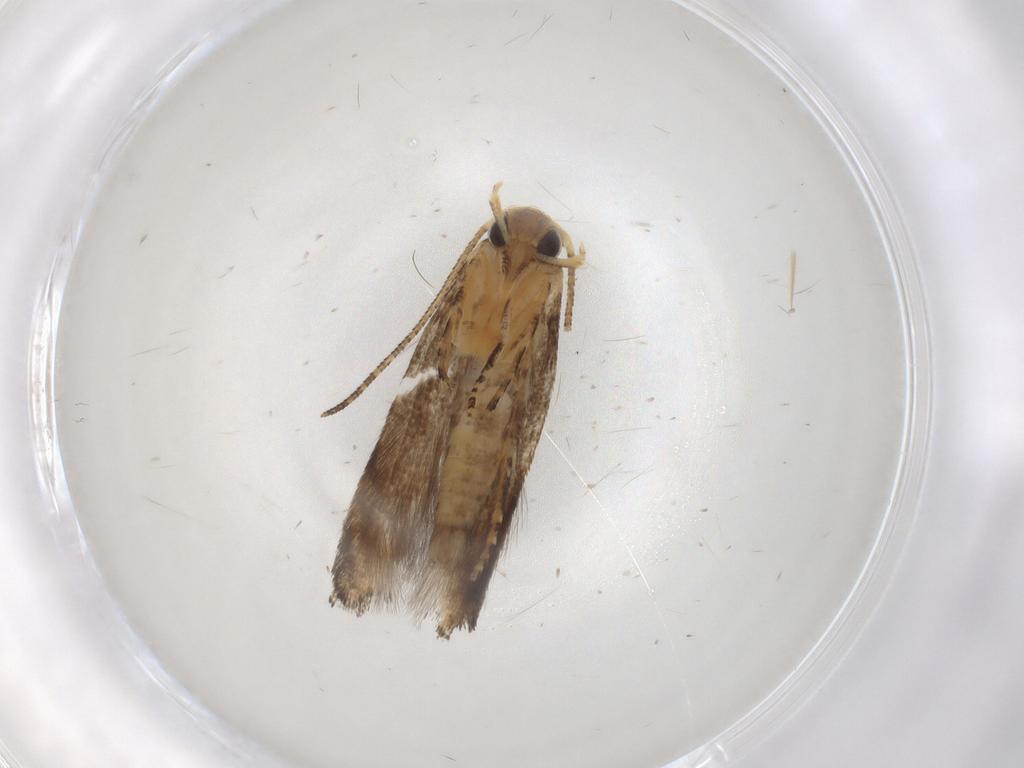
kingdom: Animalia
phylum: Arthropoda
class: Insecta
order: Lepidoptera
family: Momphidae
